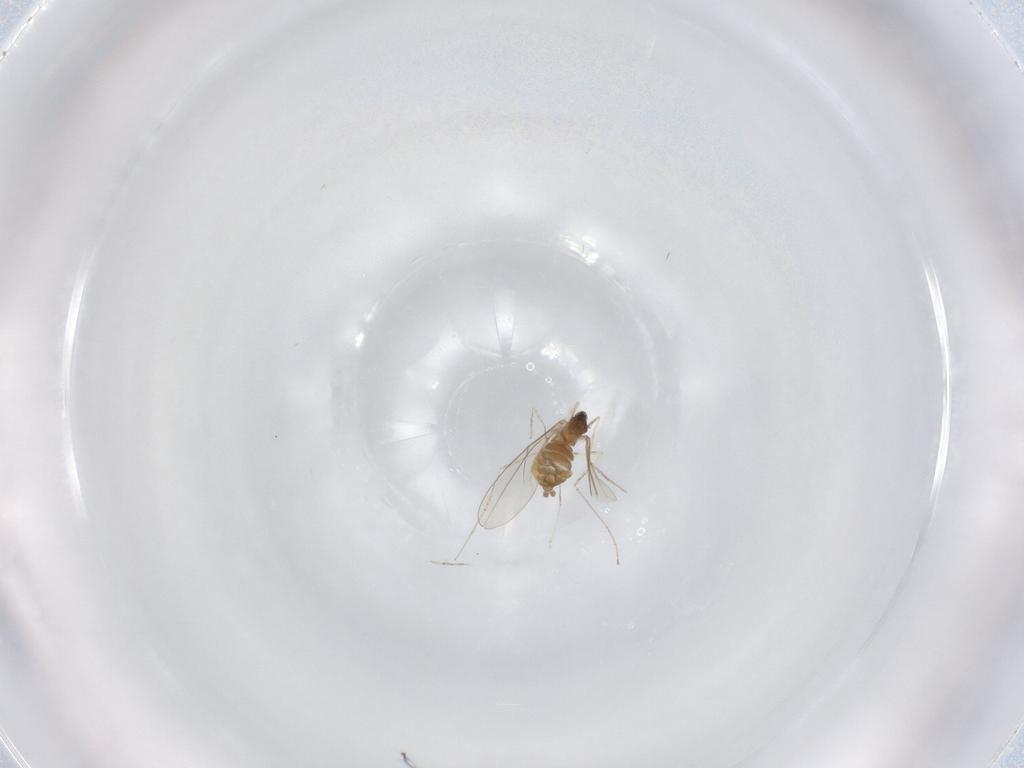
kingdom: Animalia
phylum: Arthropoda
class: Insecta
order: Diptera
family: Cecidomyiidae
